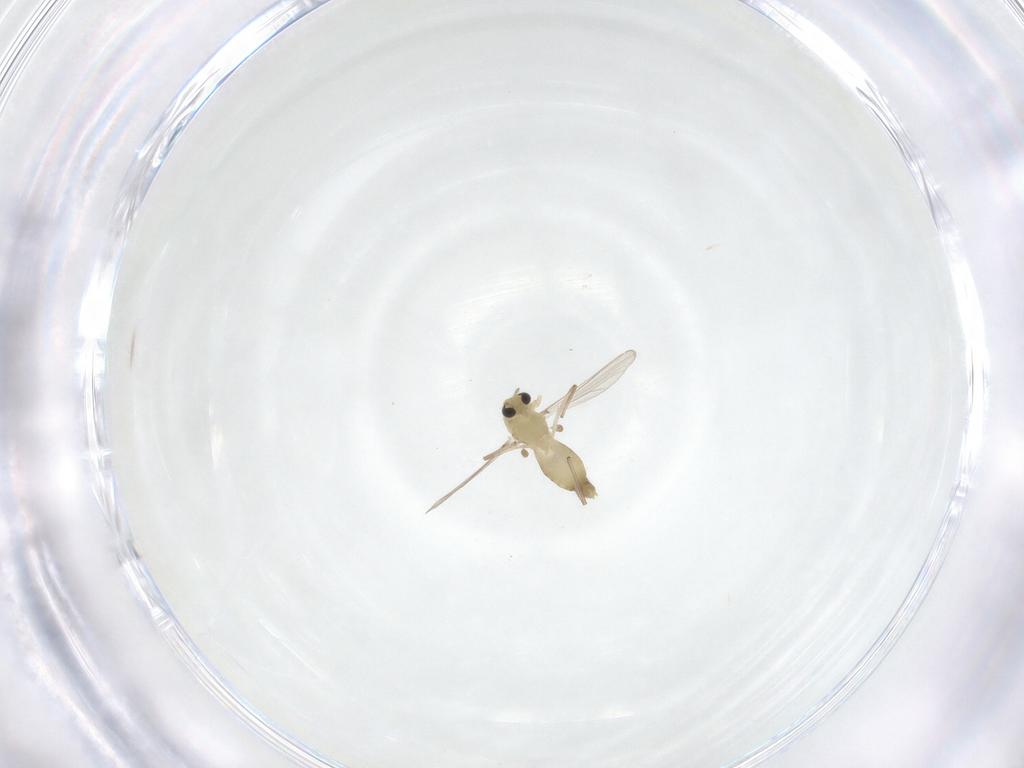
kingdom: Animalia
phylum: Arthropoda
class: Insecta
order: Diptera
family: Chironomidae
